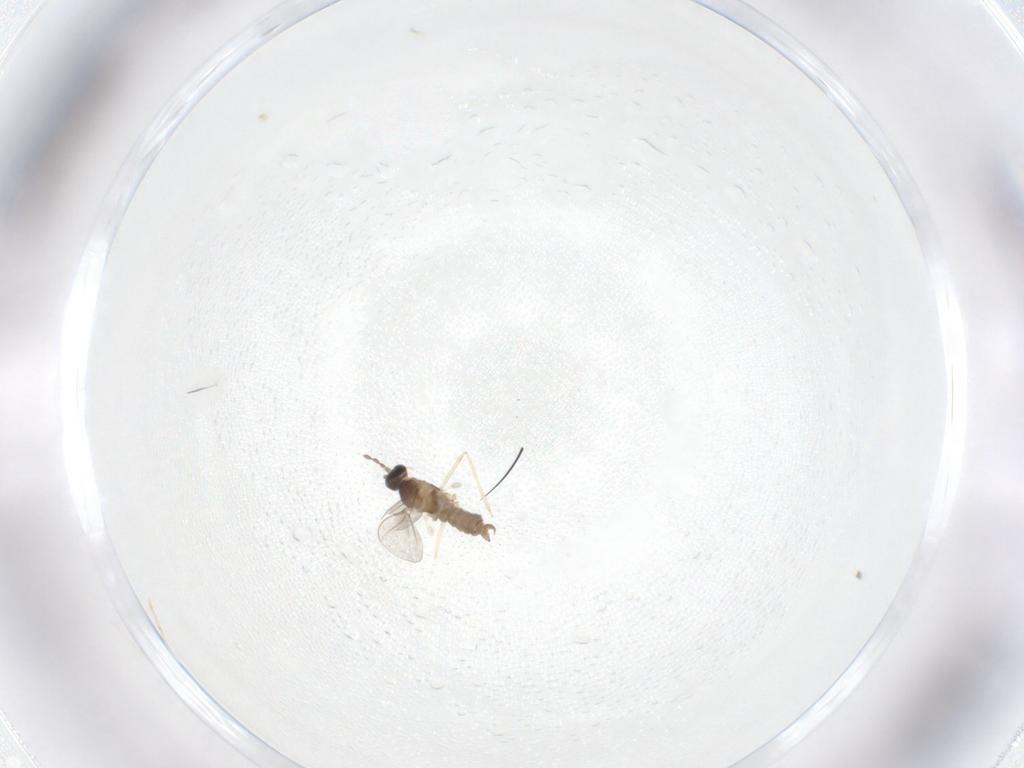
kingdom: Animalia
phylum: Arthropoda
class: Insecta
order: Diptera
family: Cecidomyiidae
